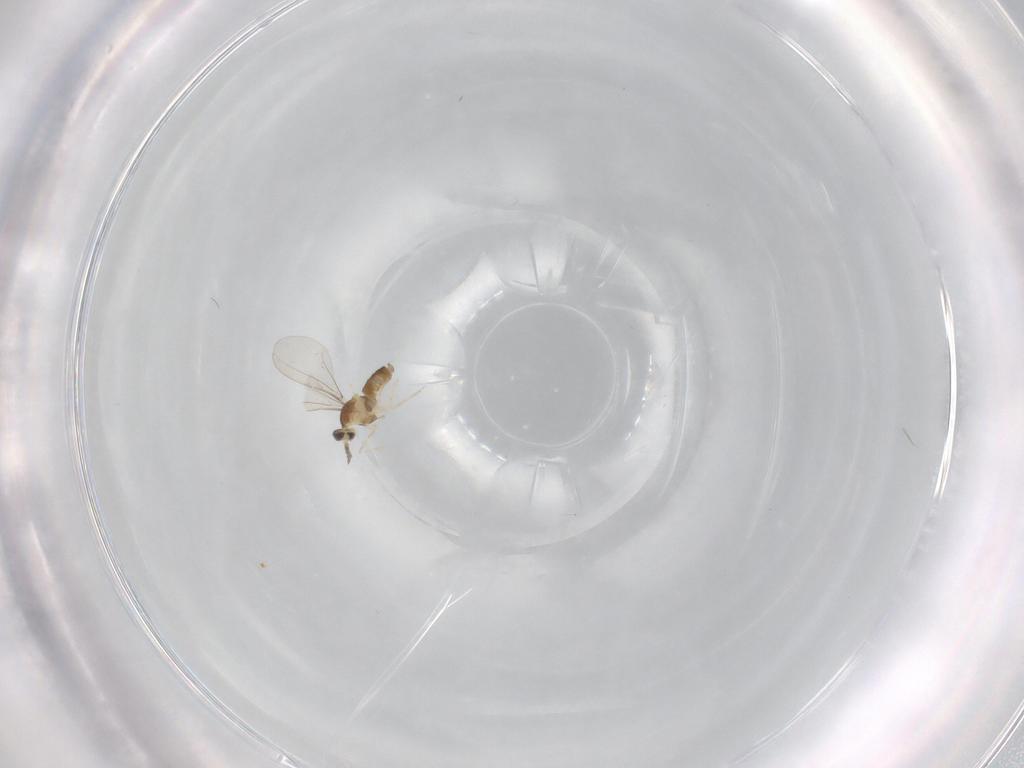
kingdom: Animalia
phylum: Arthropoda
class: Insecta
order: Diptera
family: Cecidomyiidae
